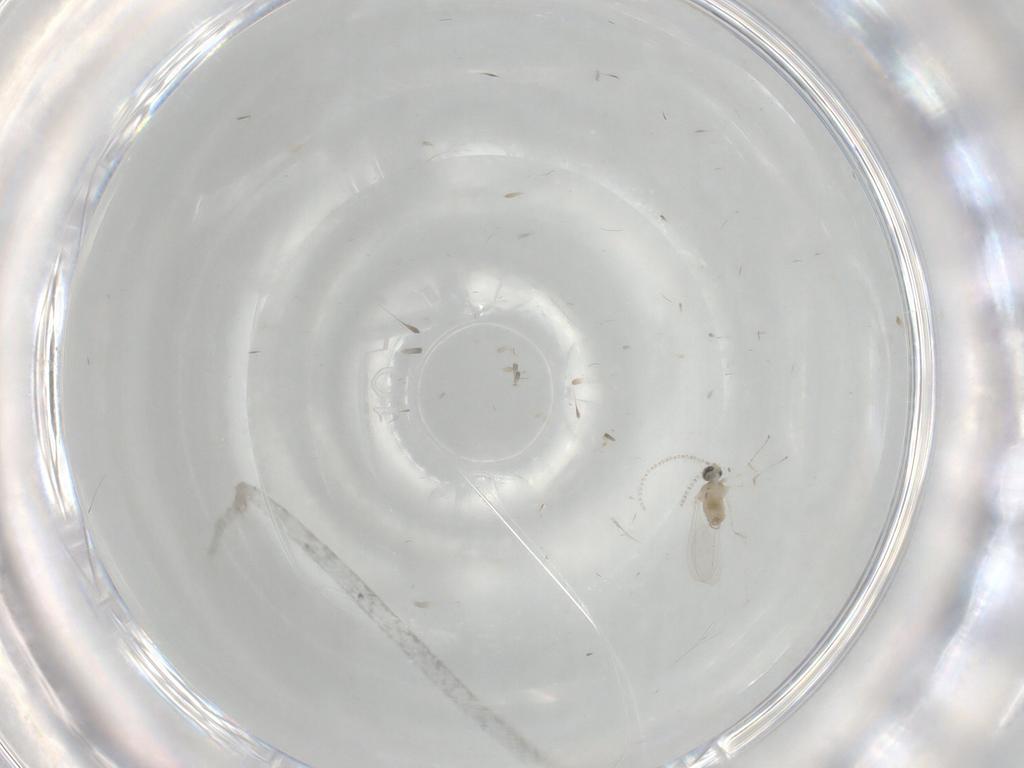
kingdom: Animalia
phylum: Arthropoda
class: Insecta
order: Diptera
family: Phoridae
